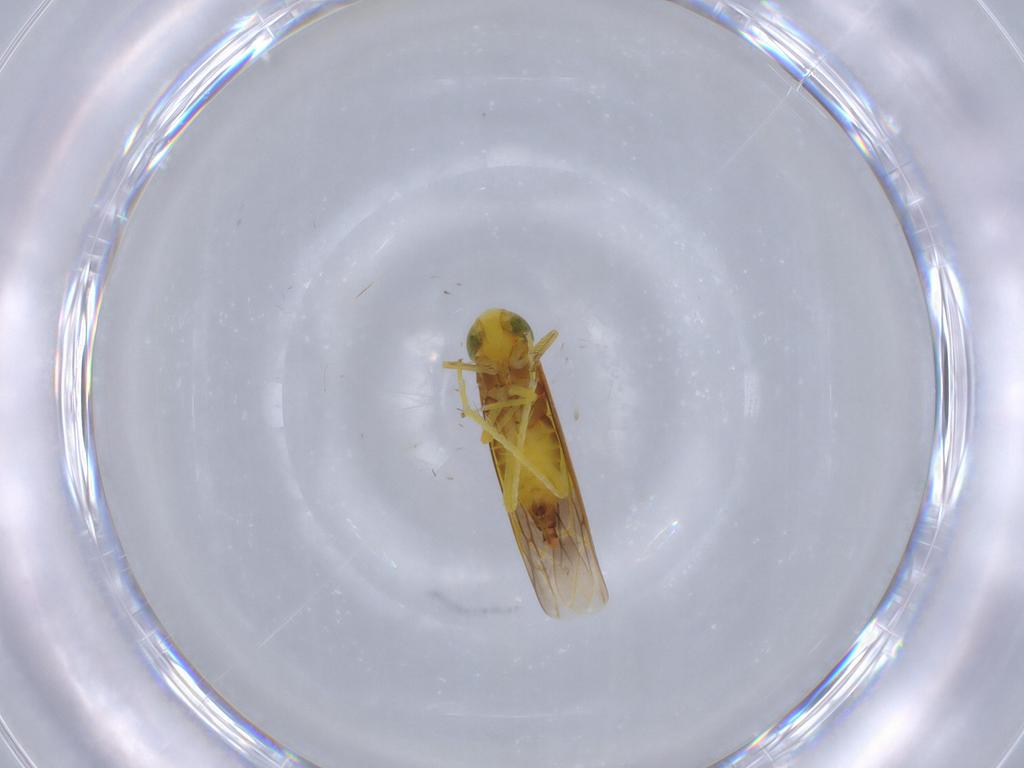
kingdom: Animalia
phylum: Arthropoda
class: Insecta
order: Hemiptera
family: Cicadellidae
